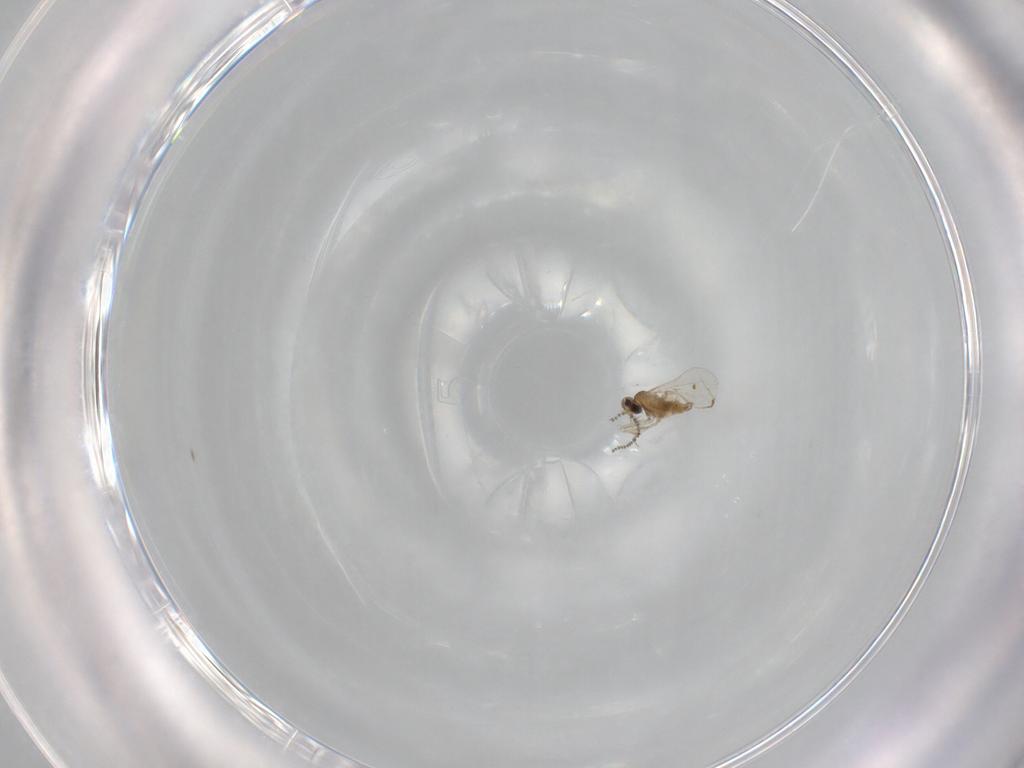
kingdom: Animalia
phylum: Arthropoda
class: Insecta
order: Diptera
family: Cecidomyiidae
